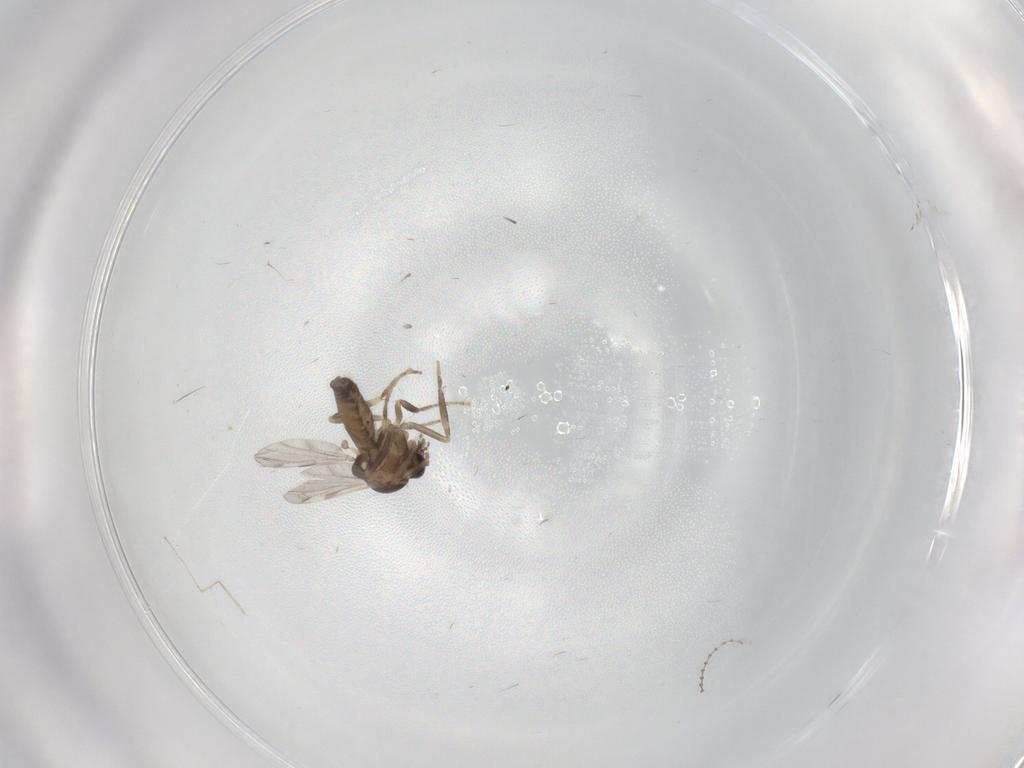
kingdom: Animalia
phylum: Arthropoda
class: Insecta
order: Diptera
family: Ceratopogonidae
